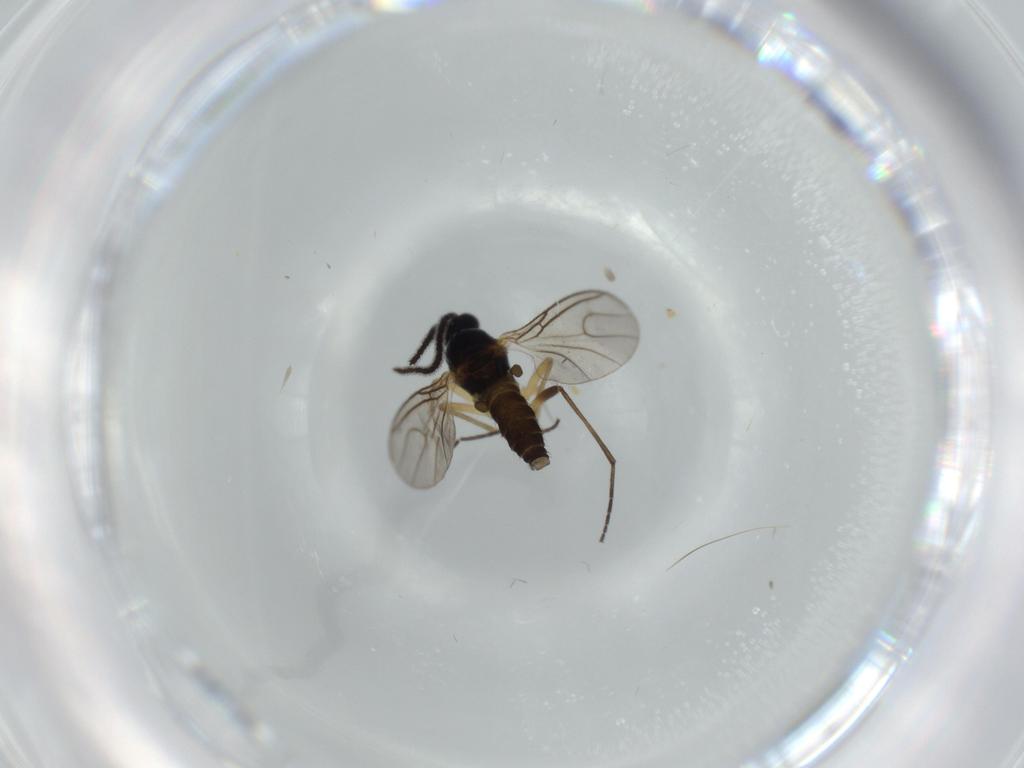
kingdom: Animalia
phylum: Arthropoda
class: Insecta
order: Diptera
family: Sciaridae
